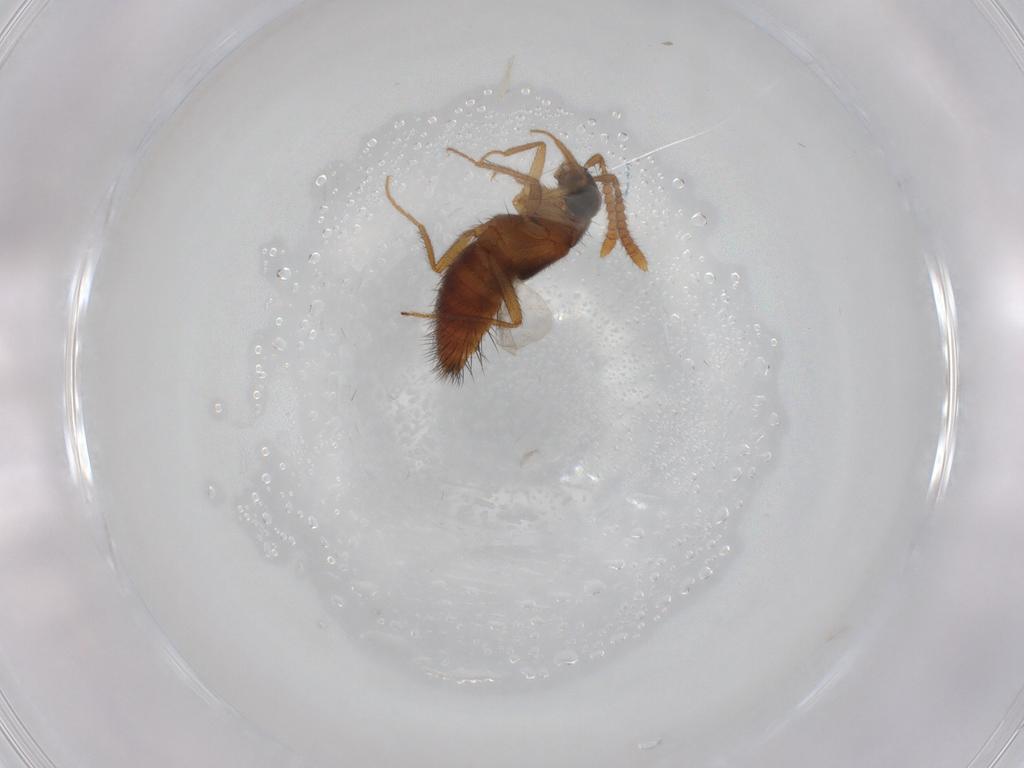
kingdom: Animalia
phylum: Arthropoda
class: Insecta
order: Coleoptera
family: Staphylinidae
